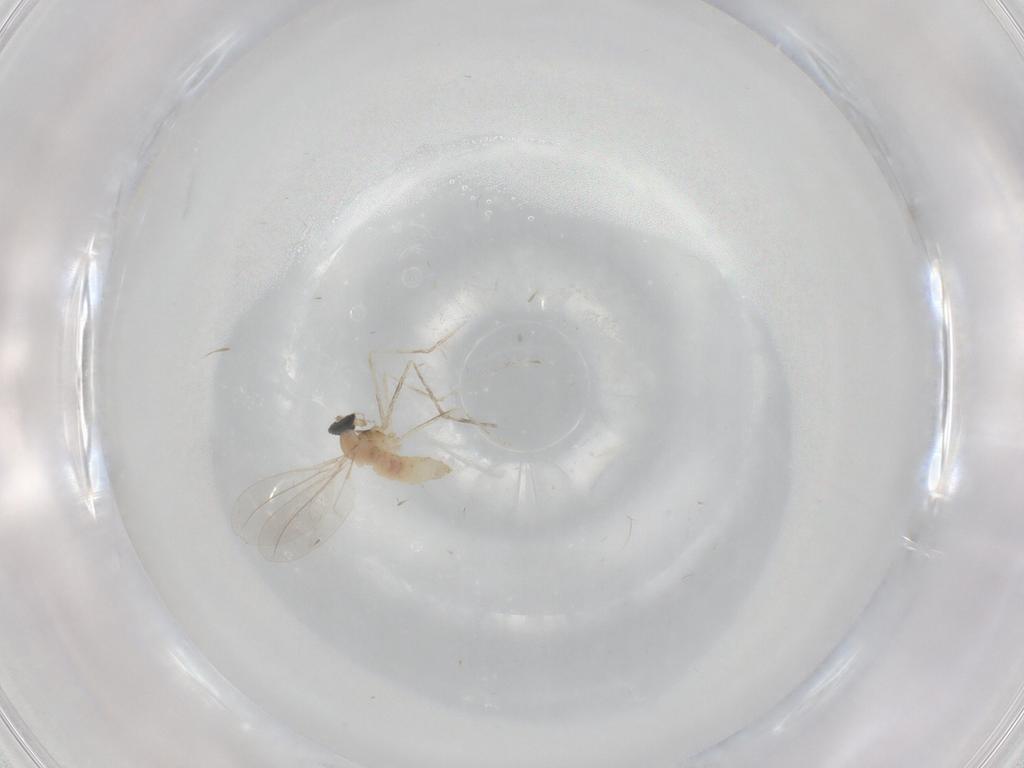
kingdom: Animalia
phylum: Arthropoda
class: Insecta
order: Diptera
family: Cecidomyiidae
